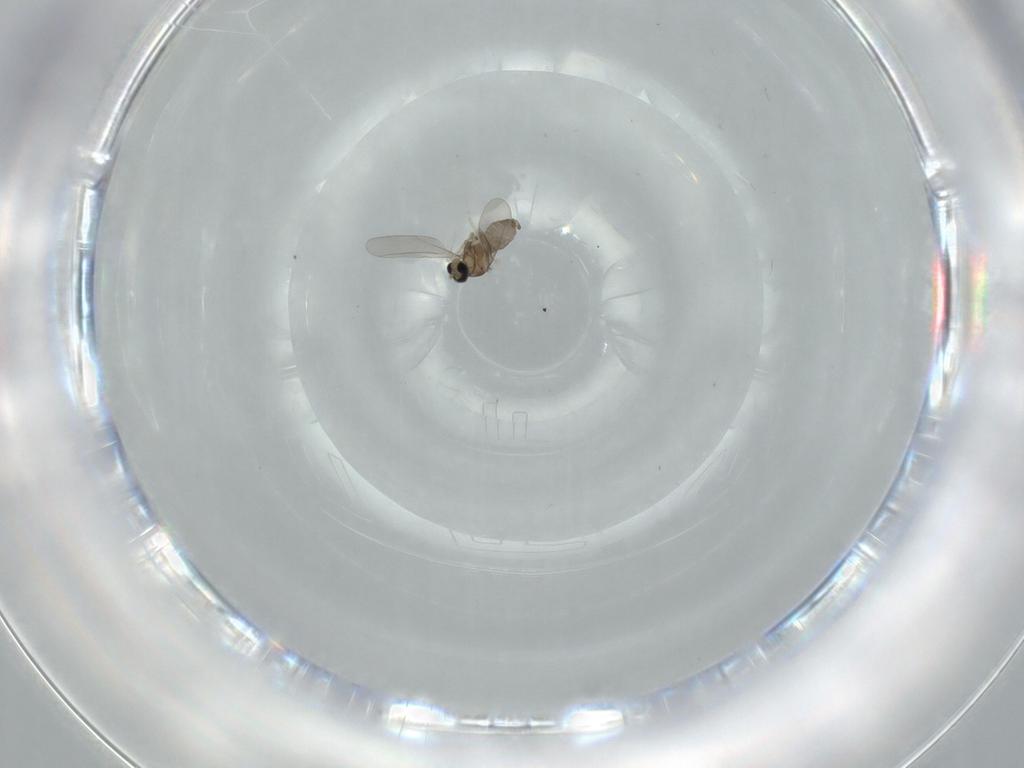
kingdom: Animalia
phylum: Arthropoda
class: Insecta
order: Diptera
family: Cecidomyiidae
